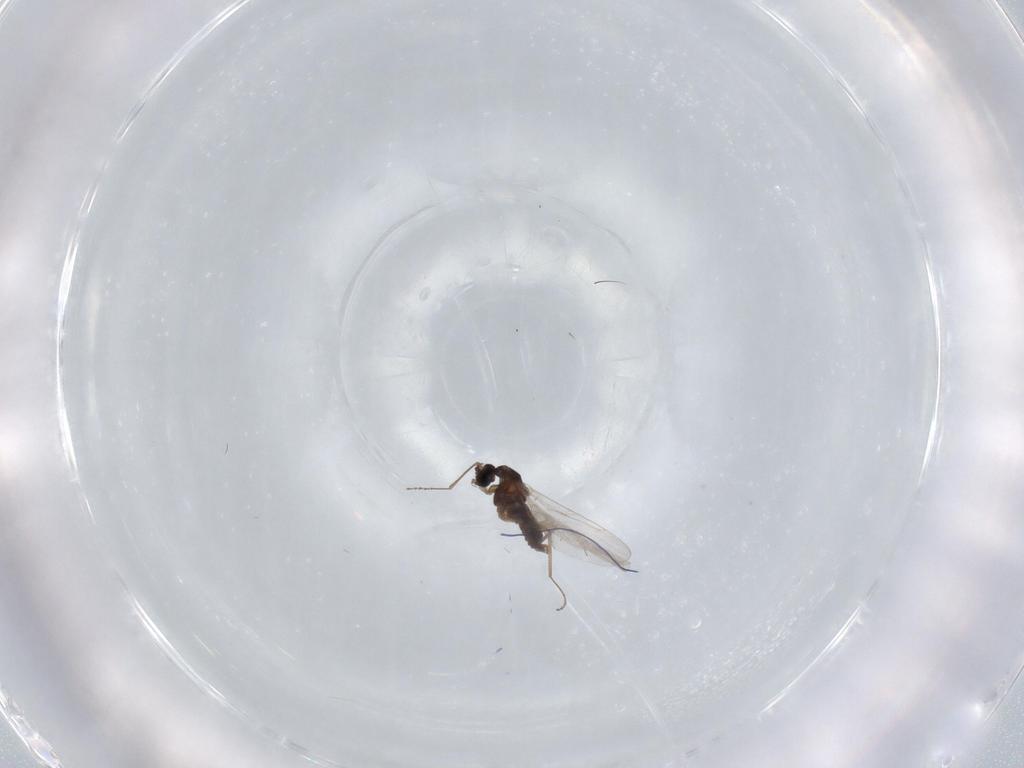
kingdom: Animalia
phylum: Arthropoda
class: Insecta
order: Diptera
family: Cecidomyiidae
